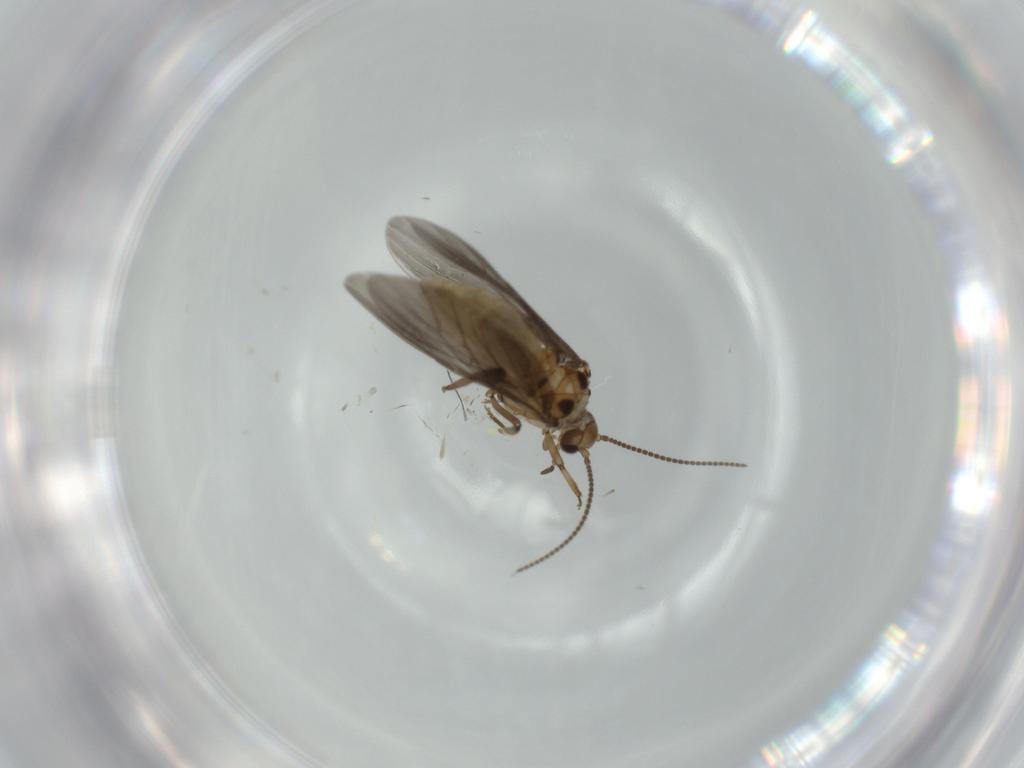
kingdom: Animalia
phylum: Arthropoda
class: Insecta
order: Neuroptera
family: Coniopterygidae
